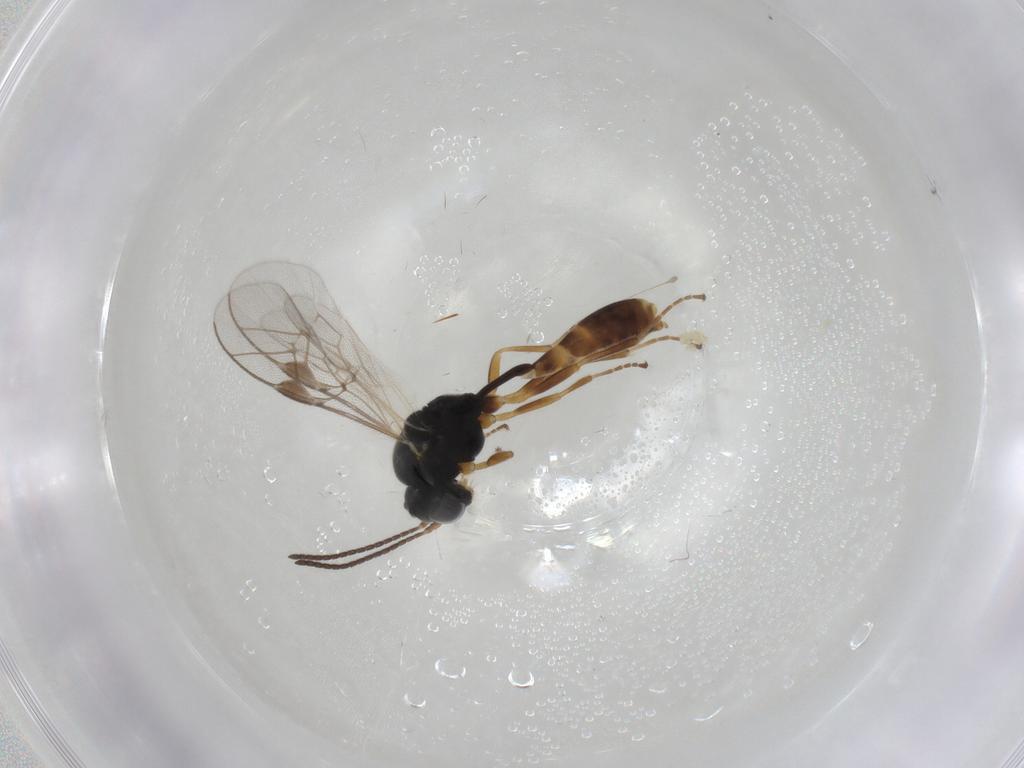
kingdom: Animalia
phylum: Arthropoda
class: Insecta
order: Hymenoptera
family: Ichneumonidae
